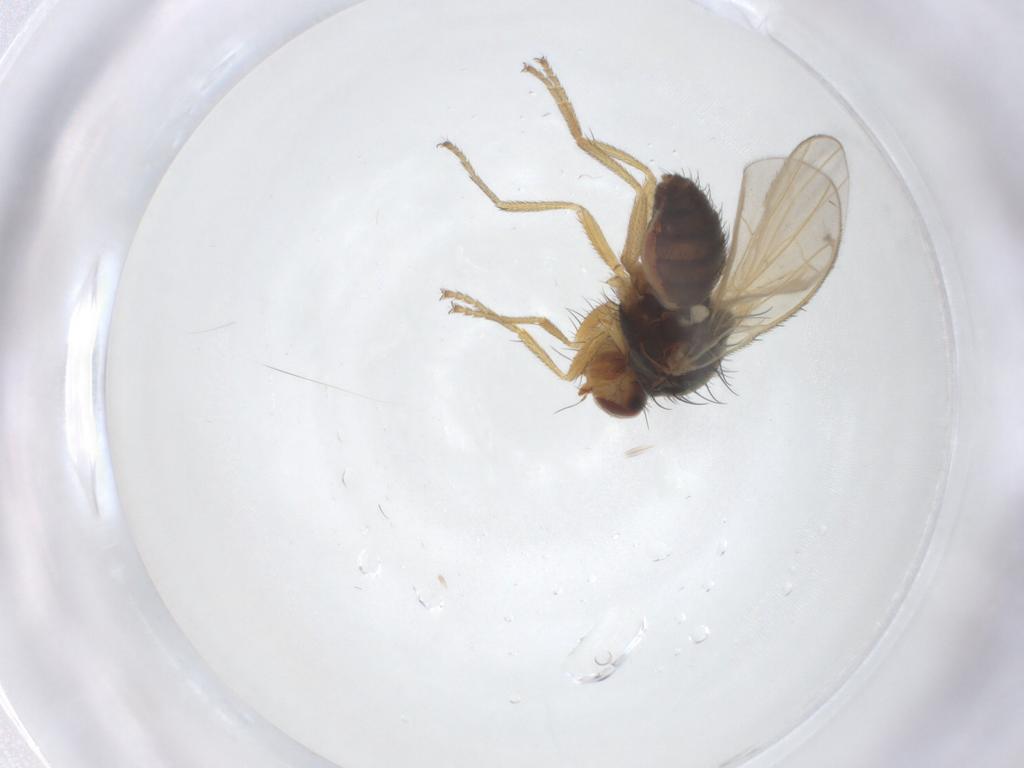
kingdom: Animalia
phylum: Arthropoda
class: Insecta
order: Diptera
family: Heleomyzidae
